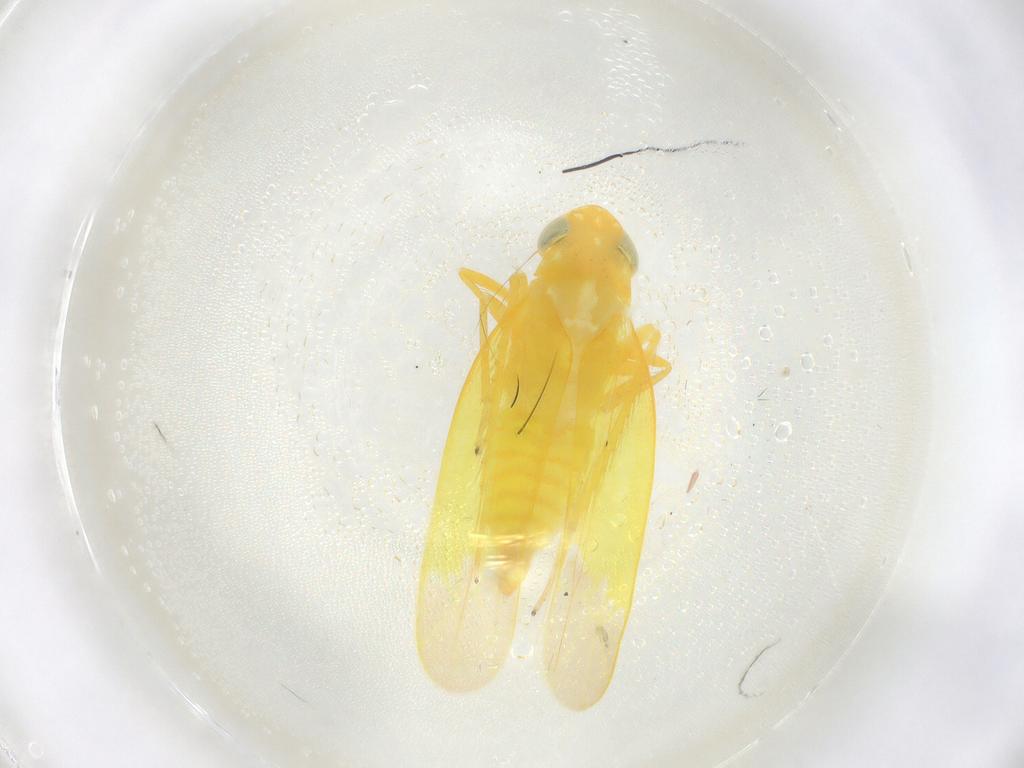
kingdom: Animalia
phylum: Arthropoda
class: Insecta
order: Hemiptera
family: Cicadellidae
